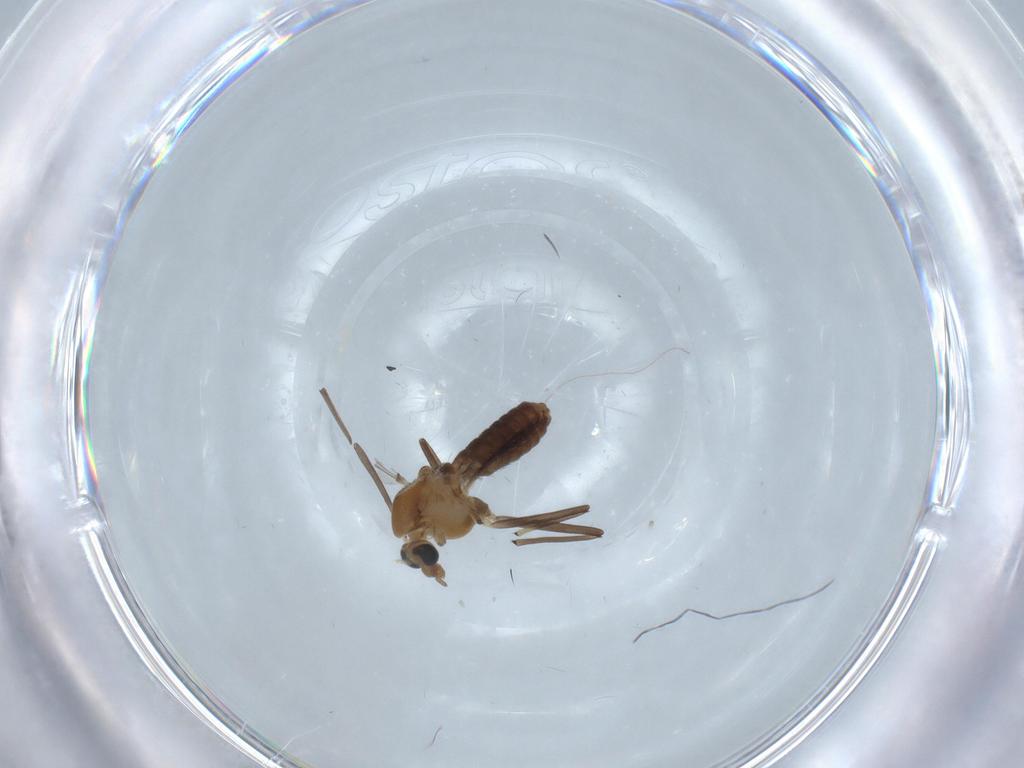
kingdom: Animalia
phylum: Arthropoda
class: Insecta
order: Diptera
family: Chironomidae
